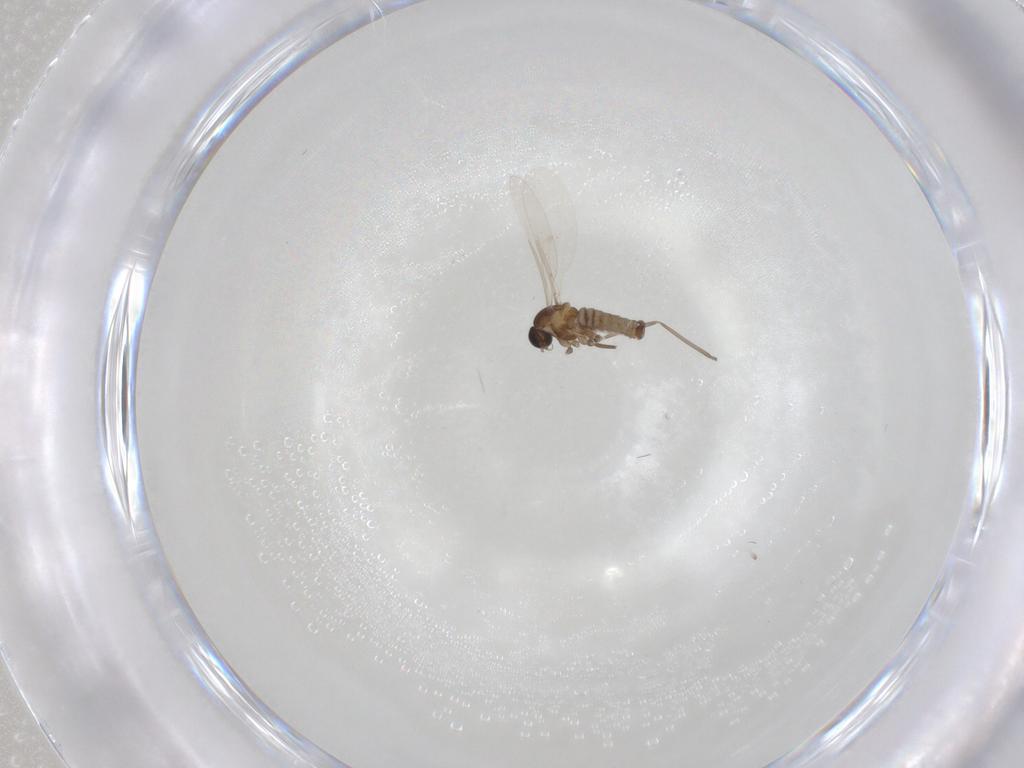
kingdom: Animalia
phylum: Arthropoda
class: Insecta
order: Diptera
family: Cecidomyiidae
